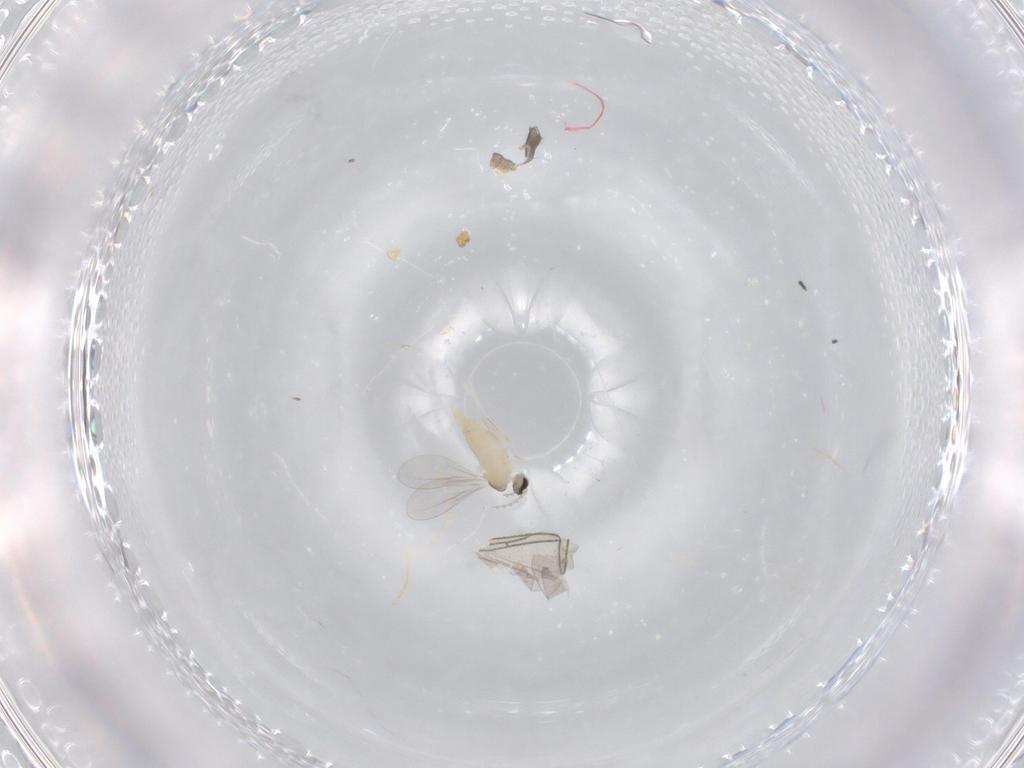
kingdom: Animalia
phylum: Arthropoda
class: Insecta
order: Diptera
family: Cecidomyiidae
